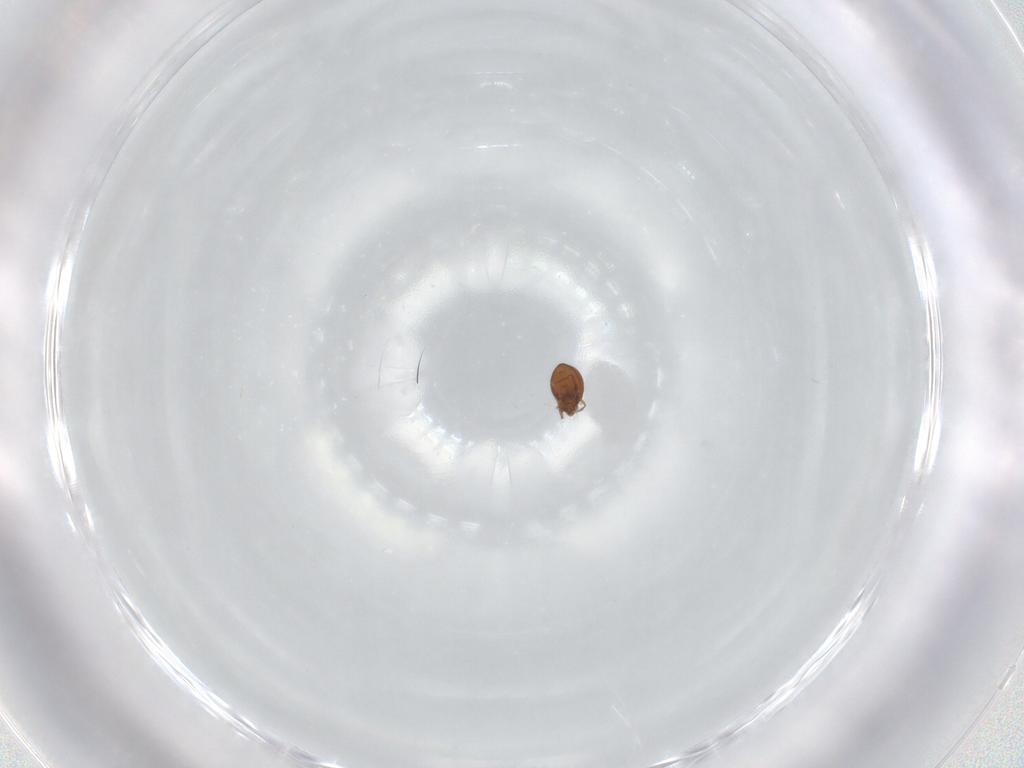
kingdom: Animalia
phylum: Arthropoda
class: Arachnida
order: Sarcoptiformes
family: Oribatulidae
